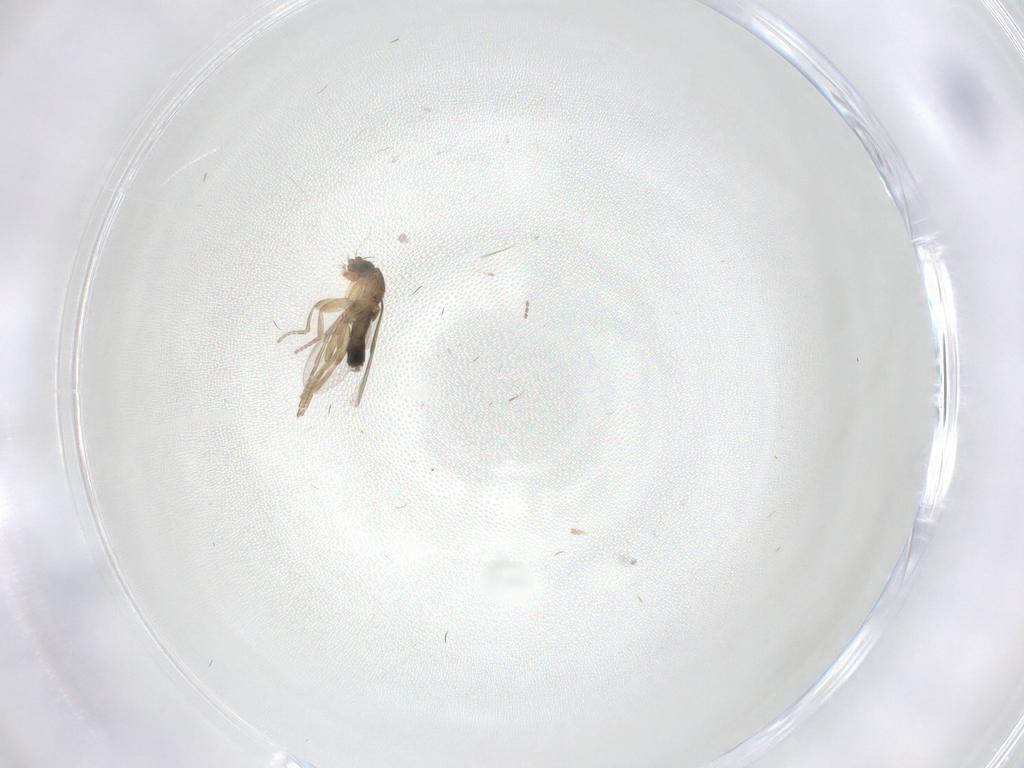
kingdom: Animalia
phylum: Arthropoda
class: Insecta
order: Diptera
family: Phoridae
